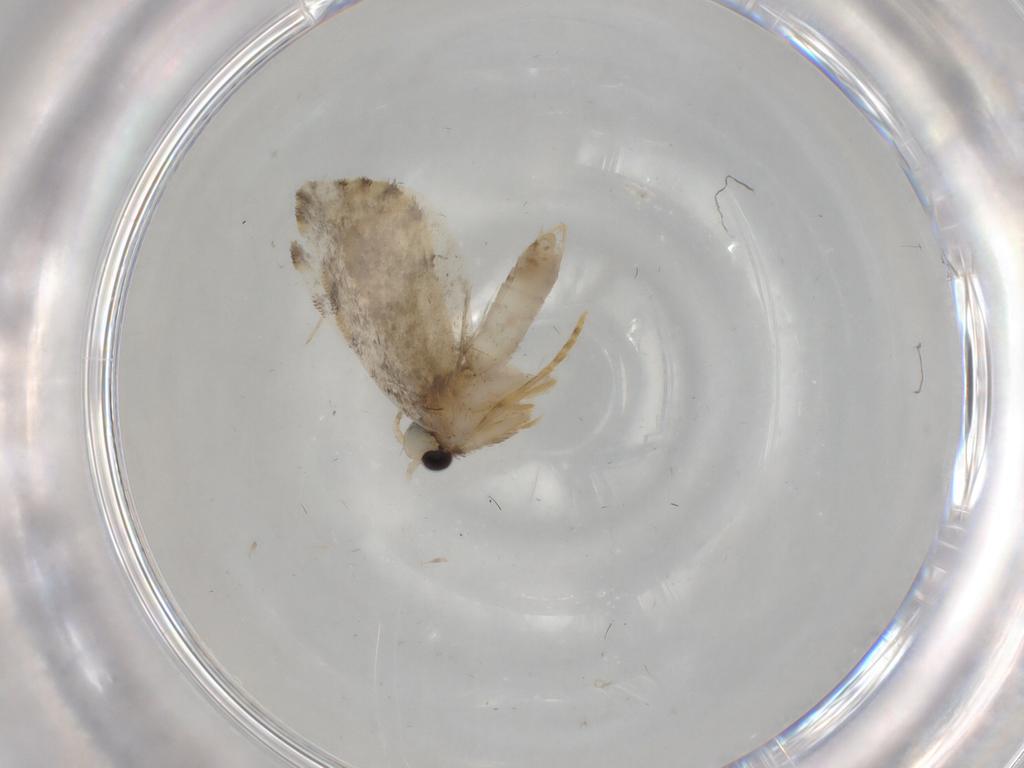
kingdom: Animalia
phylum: Arthropoda
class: Insecta
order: Lepidoptera
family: Psychidae
